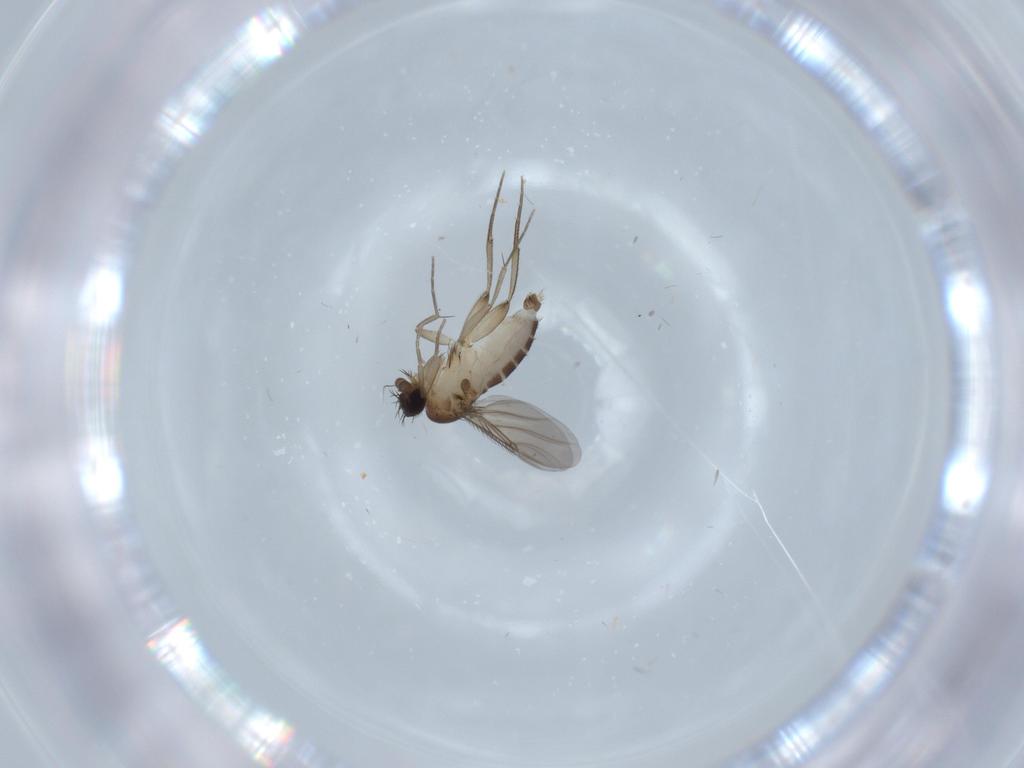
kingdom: Animalia
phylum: Arthropoda
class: Insecta
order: Diptera
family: Phoridae
